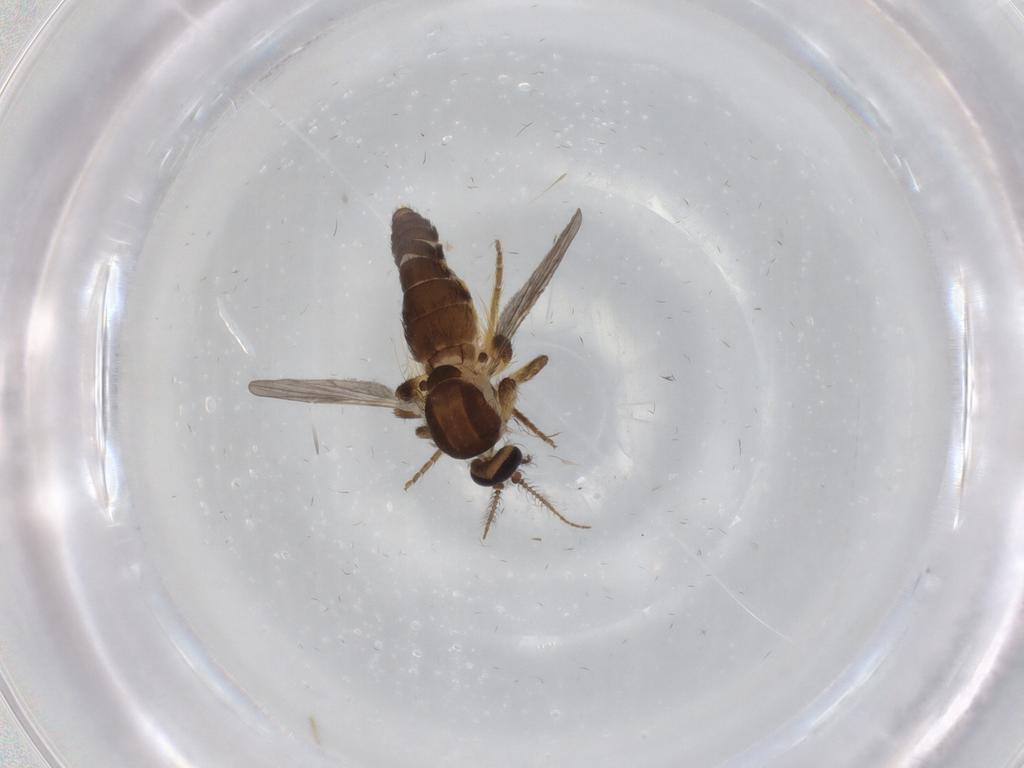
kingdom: Animalia
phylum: Arthropoda
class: Insecta
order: Diptera
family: Ceratopogonidae
